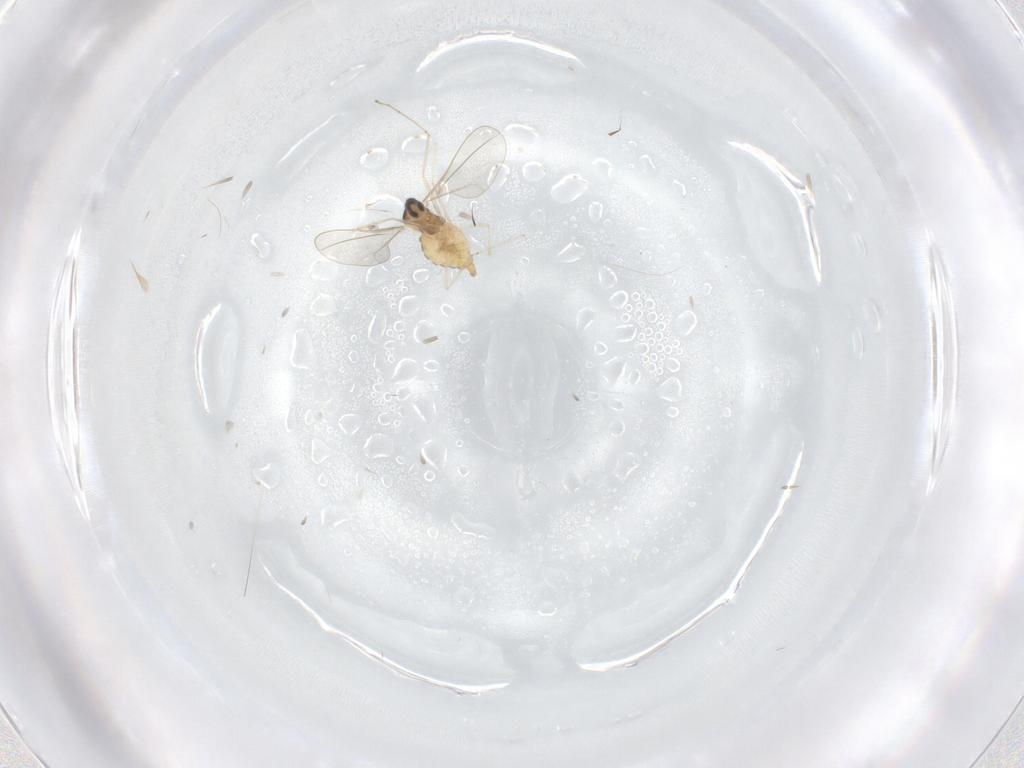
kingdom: Animalia
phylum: Arthropoda
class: Insecta
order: Diptera
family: Cecidomyiidae
